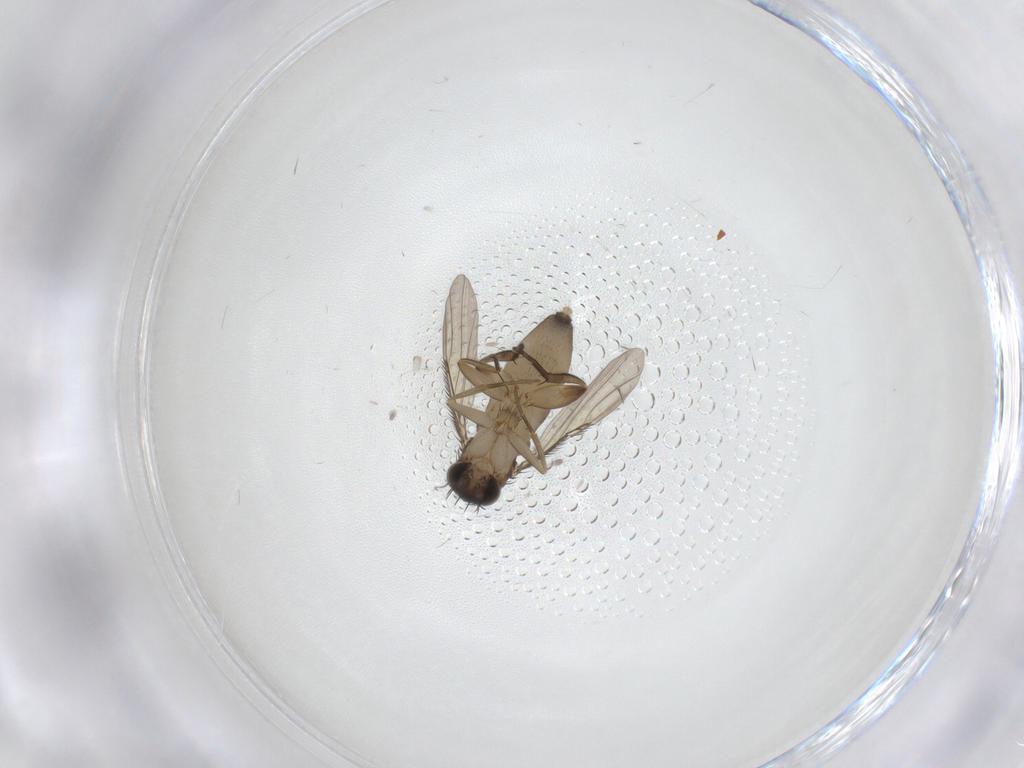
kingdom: Animalia
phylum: Arthropoda
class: Insecta
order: Diptera
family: Phoridae
